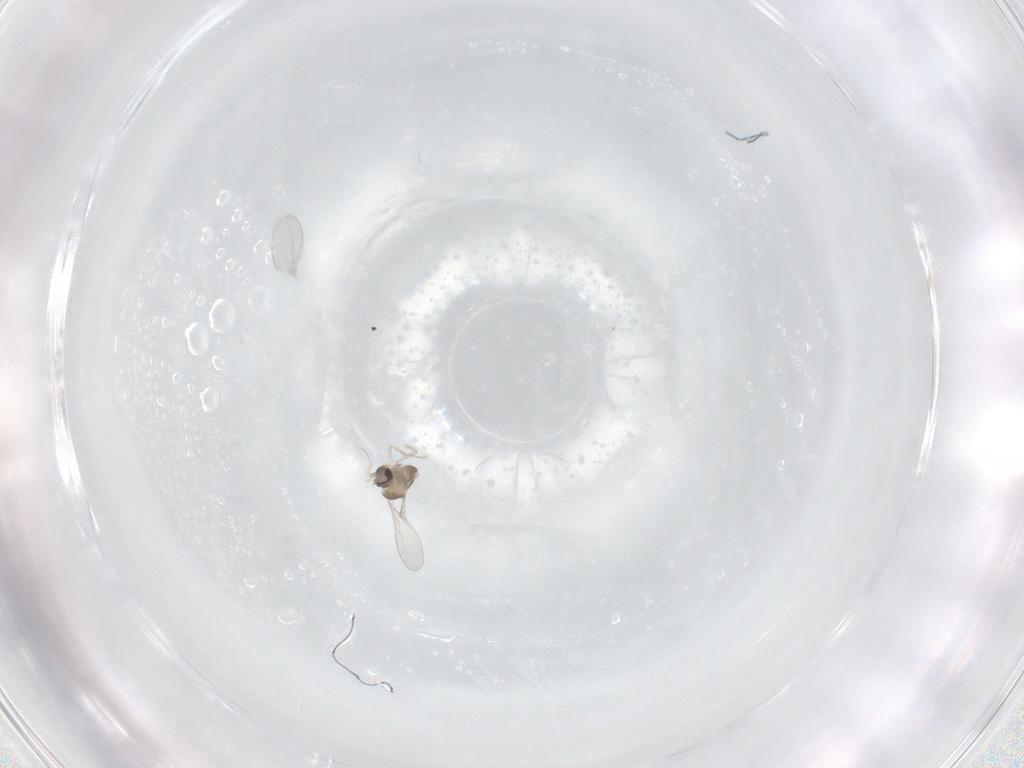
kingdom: Animalia
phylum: Arthropoda
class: Insecta
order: Diptera
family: Cecidomyiidae
